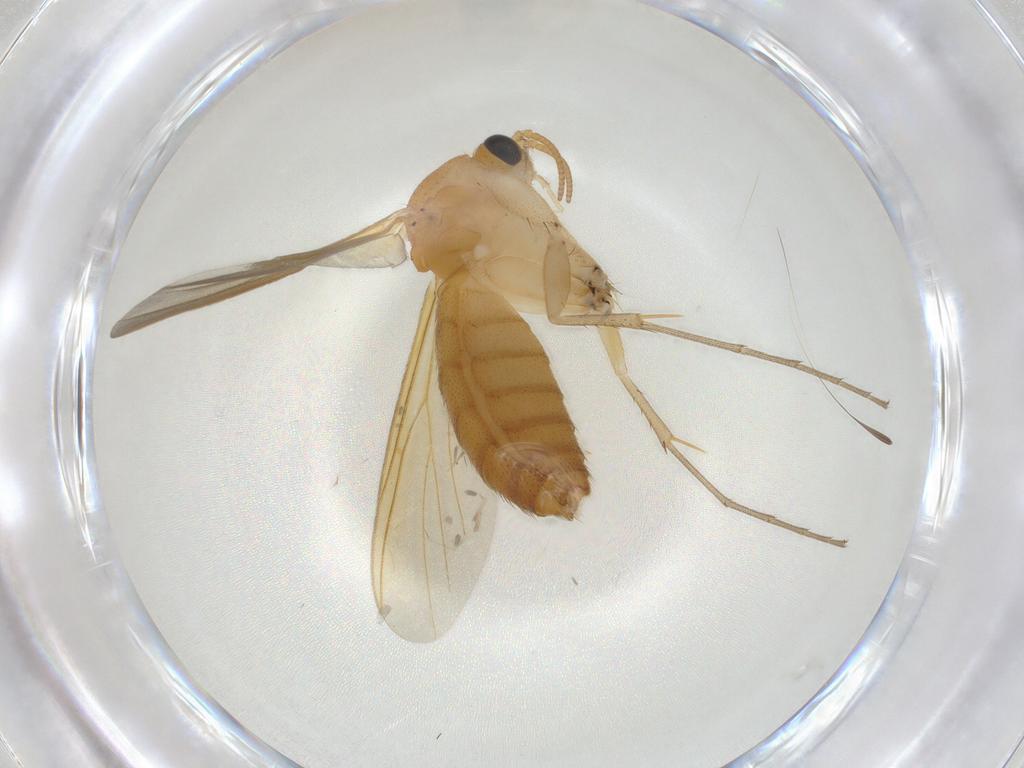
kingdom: Animalia
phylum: Arthropoda
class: Insecta
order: Diptera
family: Mycetophilidae
